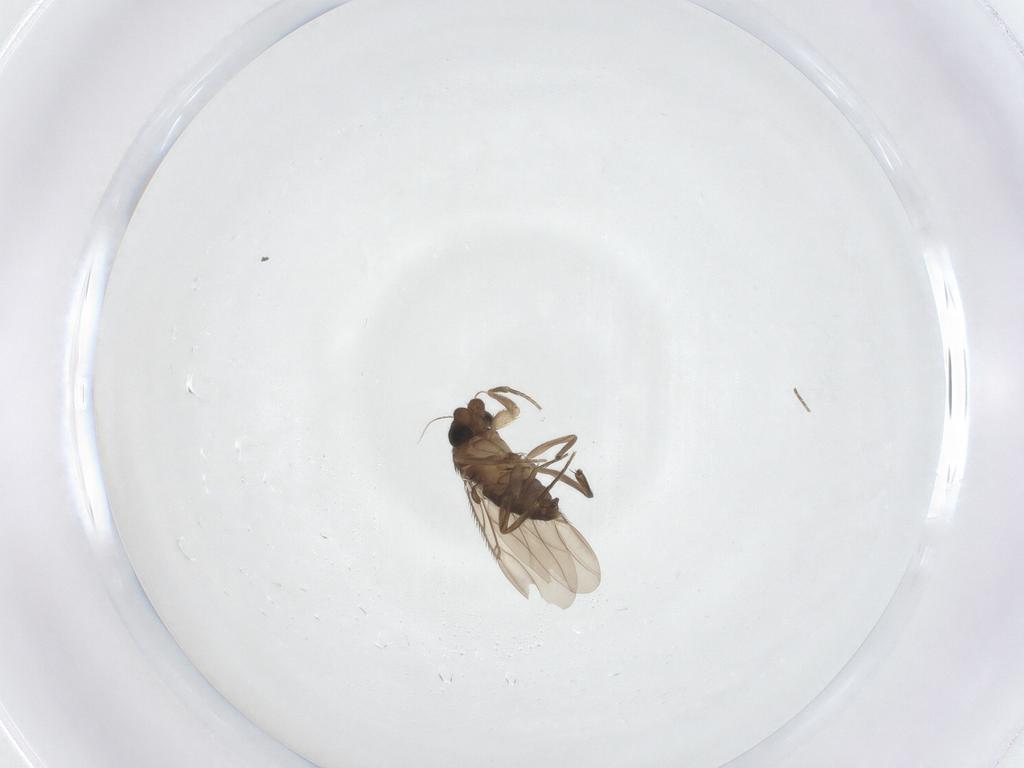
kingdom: Animalia
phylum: Arthropoda
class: Insecta
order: Diptera
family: Phoridae
